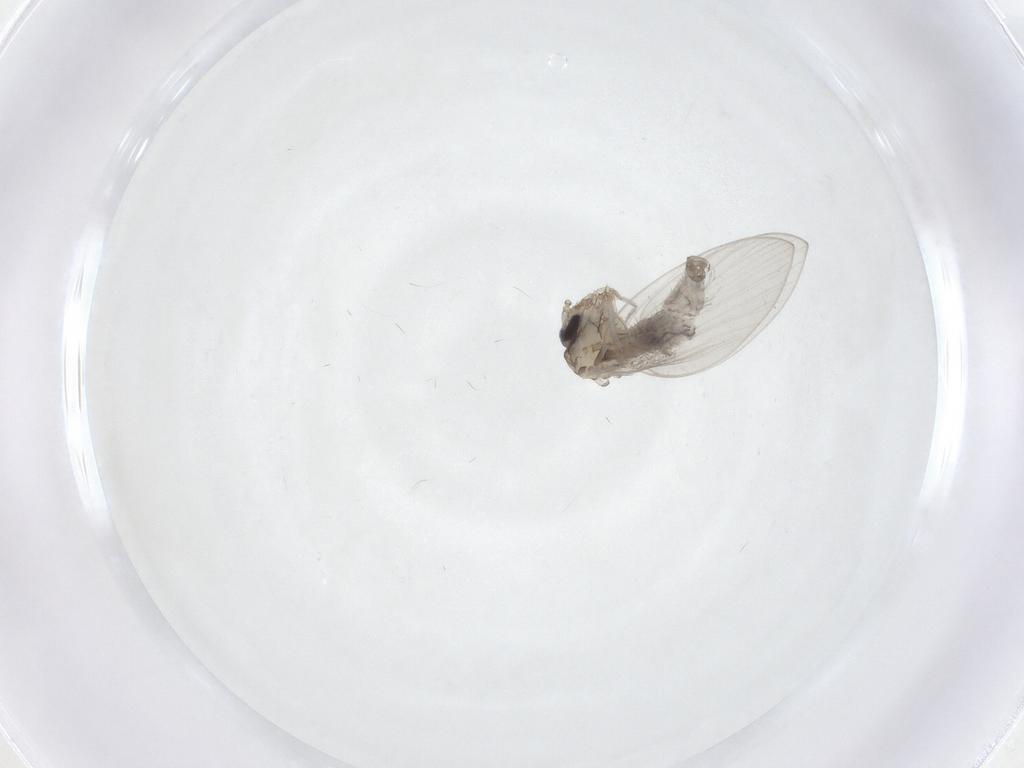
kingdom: Animalia
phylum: Arthropoda
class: Insecta
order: Diptera
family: Psychodidae
